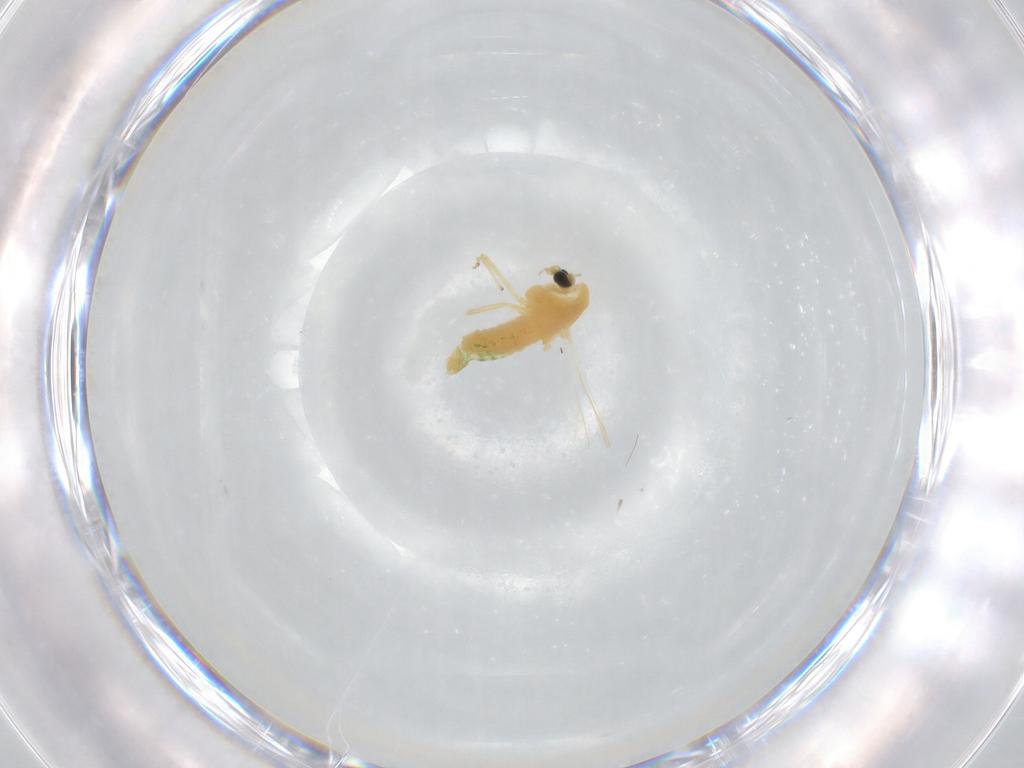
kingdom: Animalia
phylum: Arthropoda
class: Insecta
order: Diptera
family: Chironomidae
